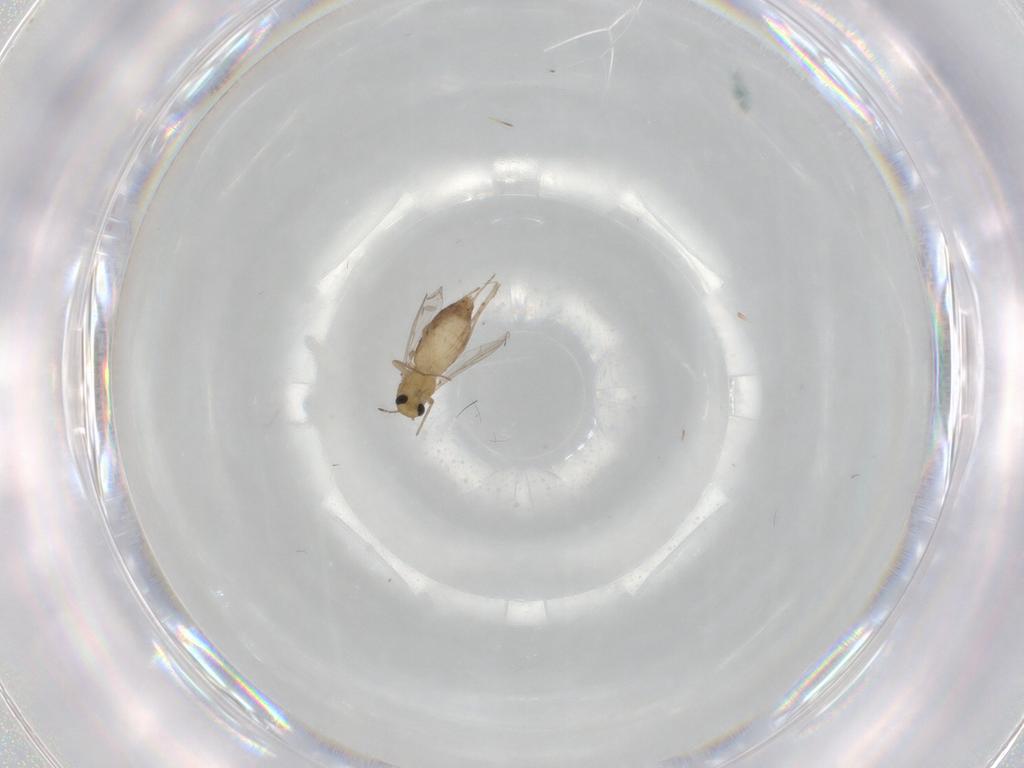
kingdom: Animalia
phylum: Arthropoda
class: Insecta
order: Diptera
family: Chironomidae
